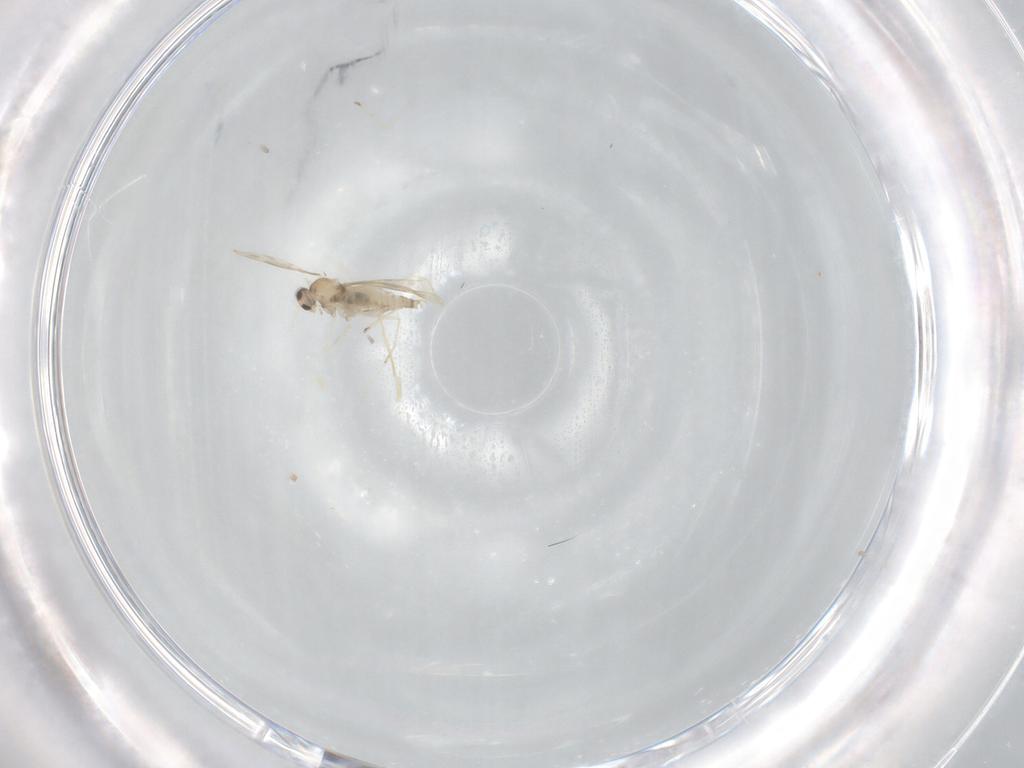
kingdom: Animalia
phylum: Arthropoda
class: Insecta
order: Diptera
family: Cecidomyiidae
